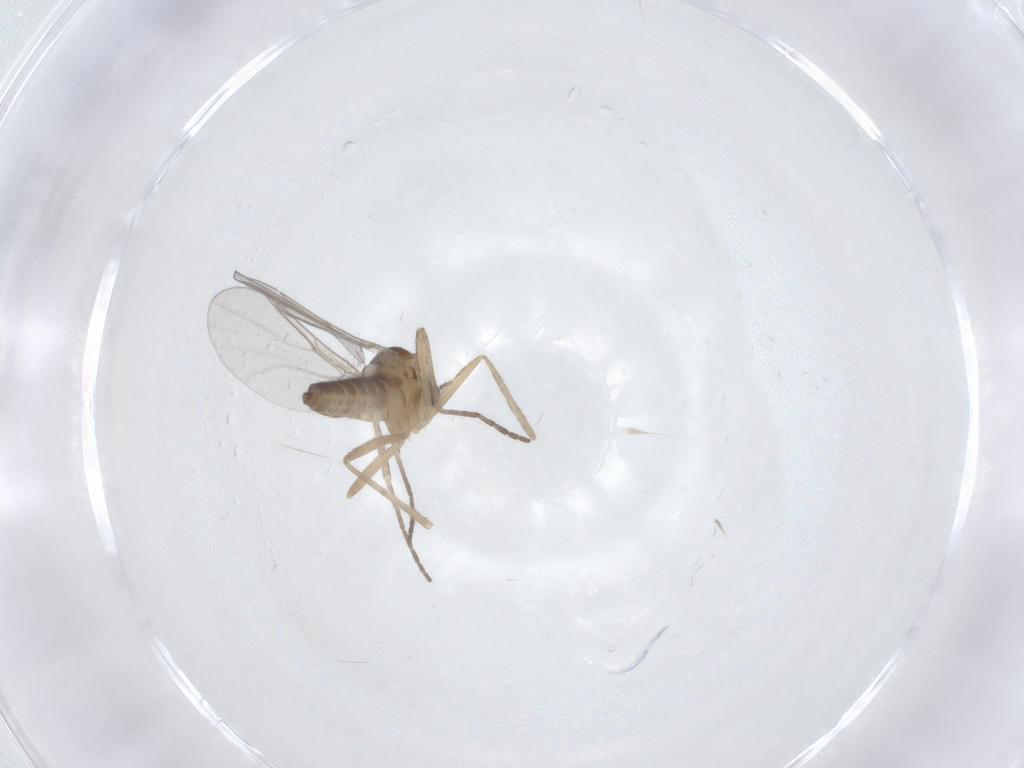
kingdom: Animalia
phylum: Arthropoda
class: Insecta
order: Diptera
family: Cecidomyiidae
